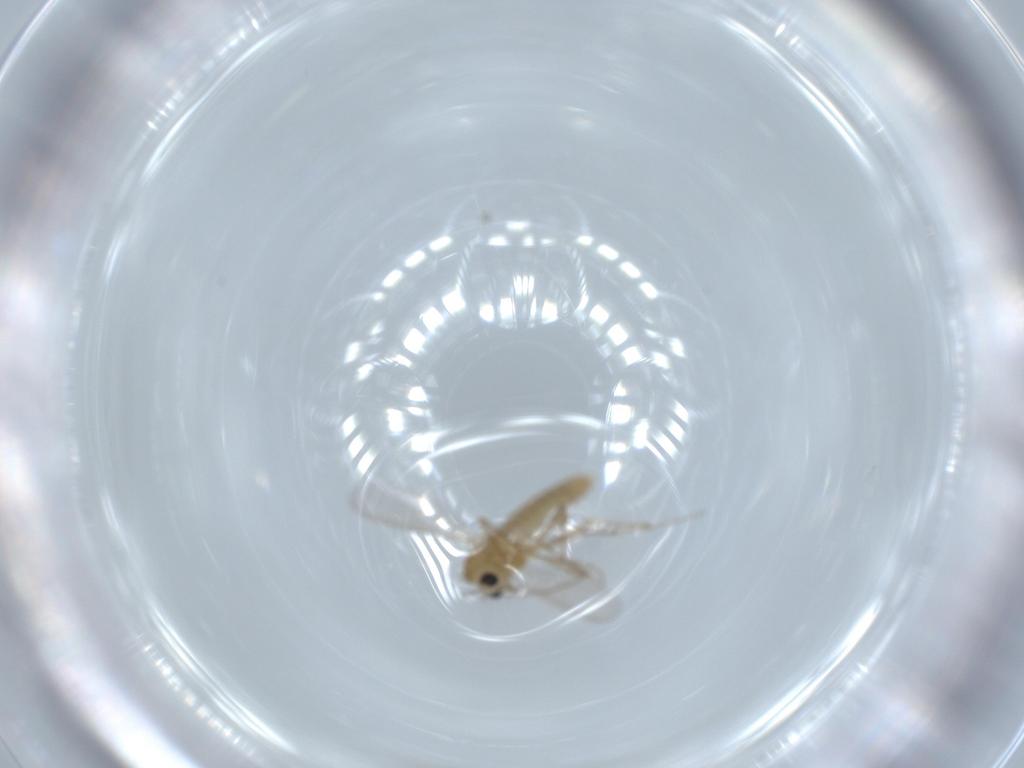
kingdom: Animalia
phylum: Arthropoda
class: Insecta
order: Diptera
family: Chironomidae
